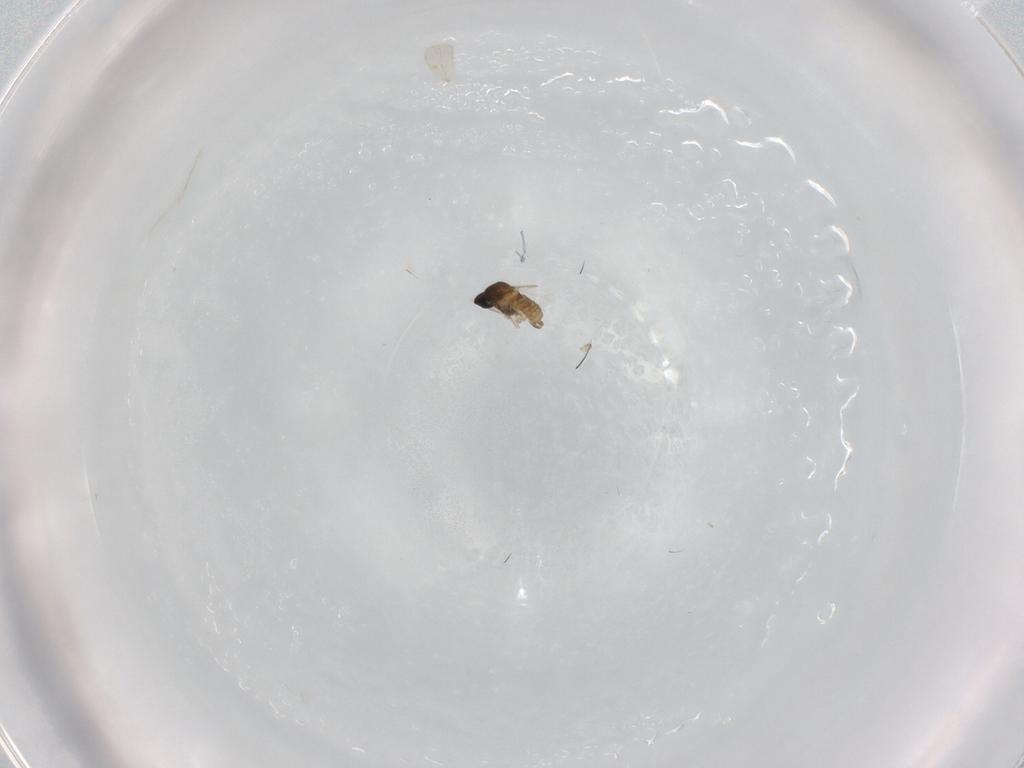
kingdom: Animalia
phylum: Arthropoda
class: Insecta
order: Diptera
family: Cecidomyiidae
